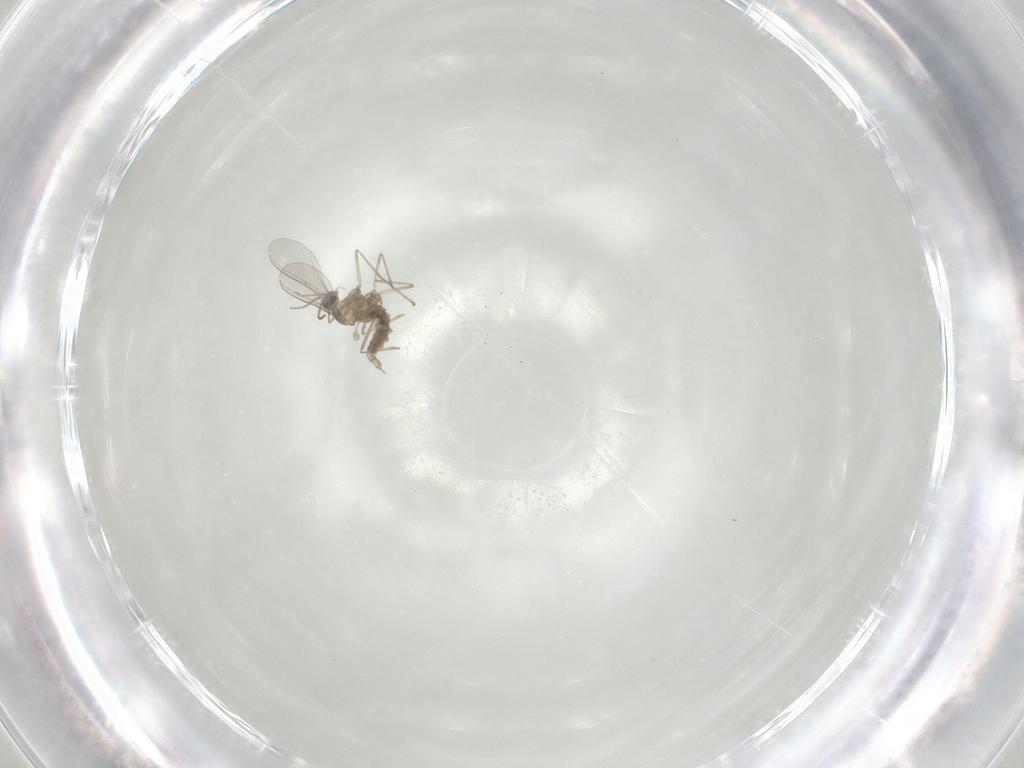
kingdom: Animalia
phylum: Arthropoda
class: Insecta
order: Diptera
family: Cecidomyiidae
